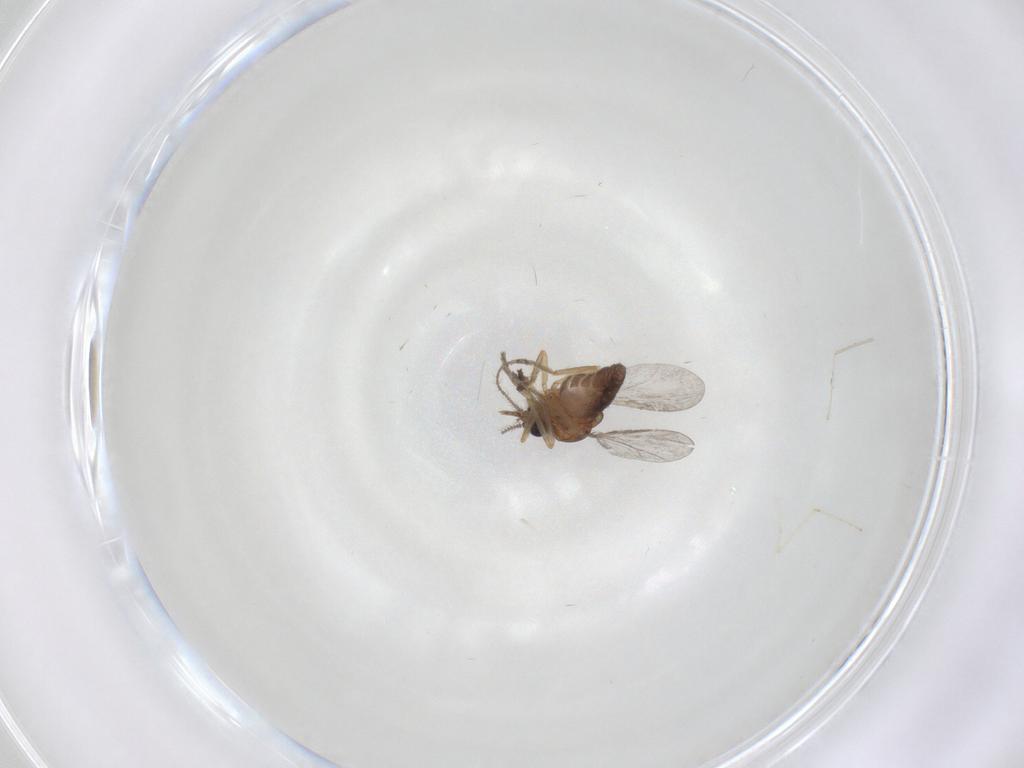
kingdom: Animalia
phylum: Arthropoda
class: Insecta
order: Diptera
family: Ceratopogonidae
